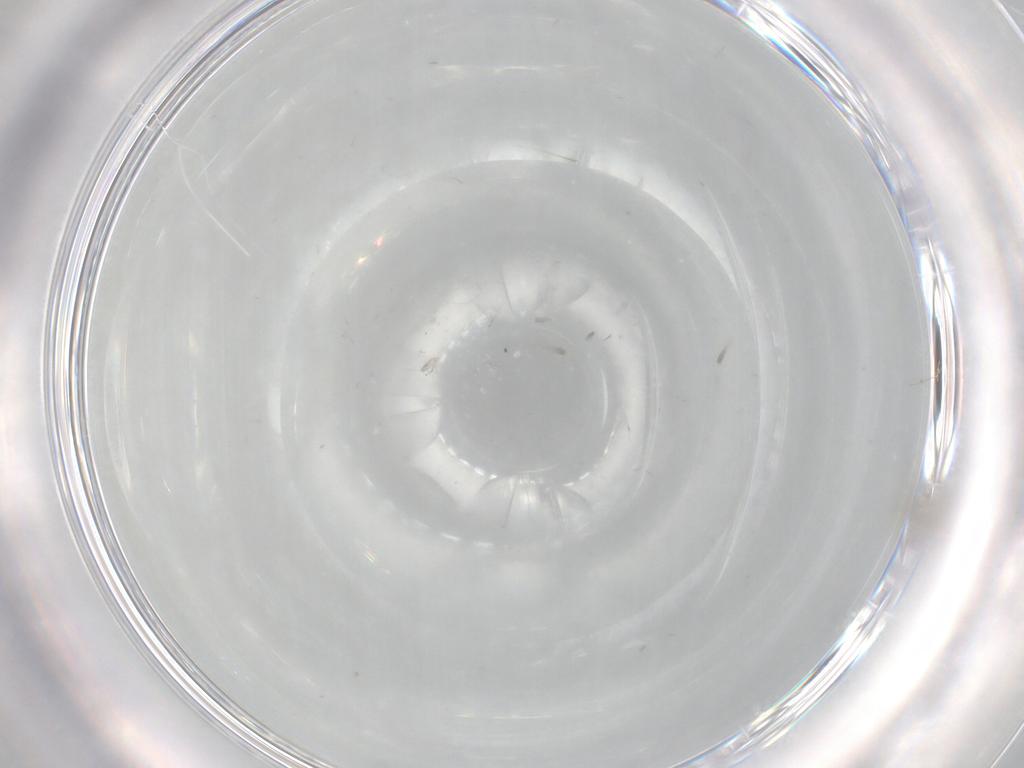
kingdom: Animalia
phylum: Arthropoda
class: Insecta
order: Diptera
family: Cecidomyiidae
